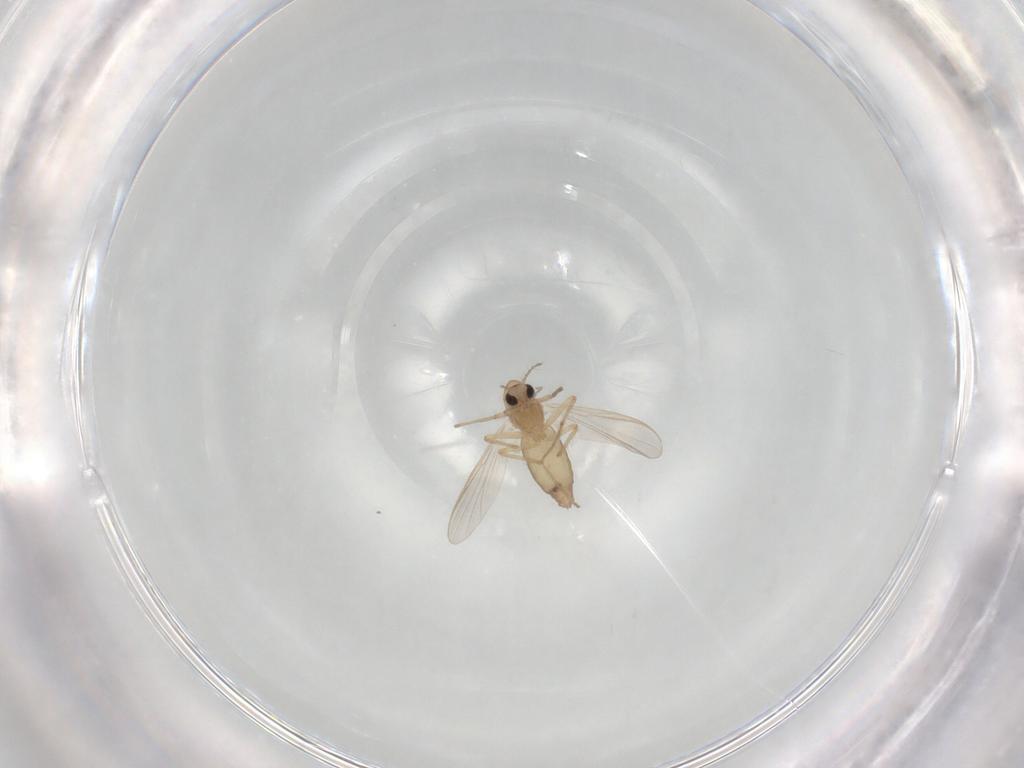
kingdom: Animalia
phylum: Arthropoda
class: Insecta
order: Diptera
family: Chironomidae
